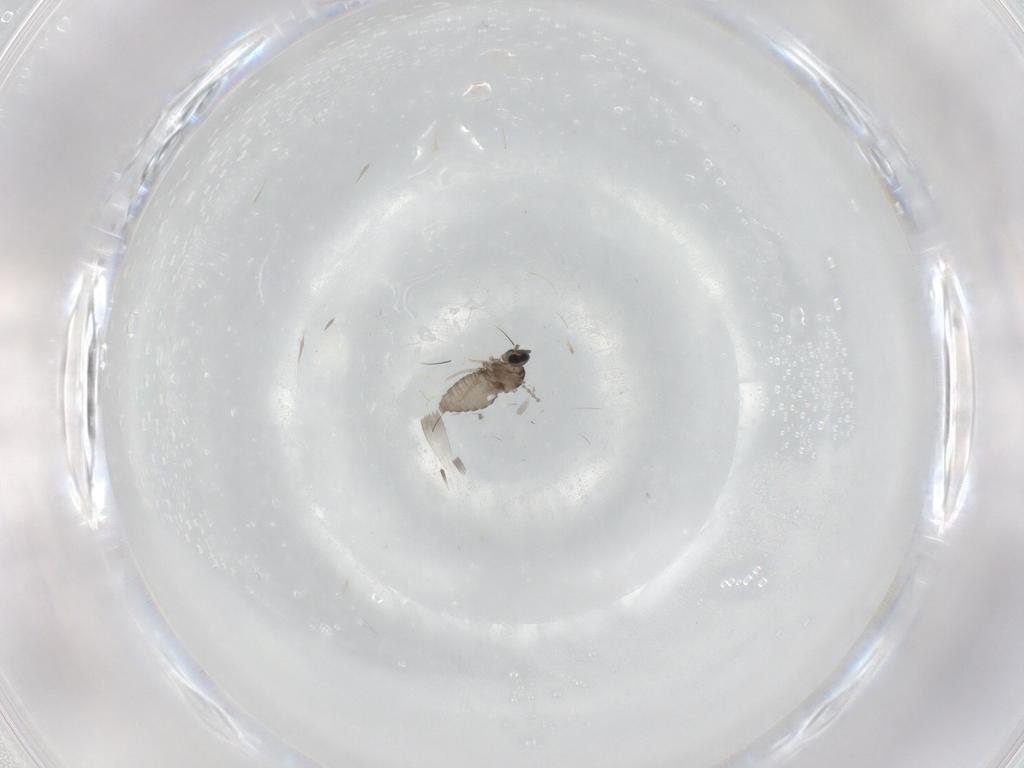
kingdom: Animalia
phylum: Arthropoda
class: Insecta
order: Diptera
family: Cecidomyiidae
